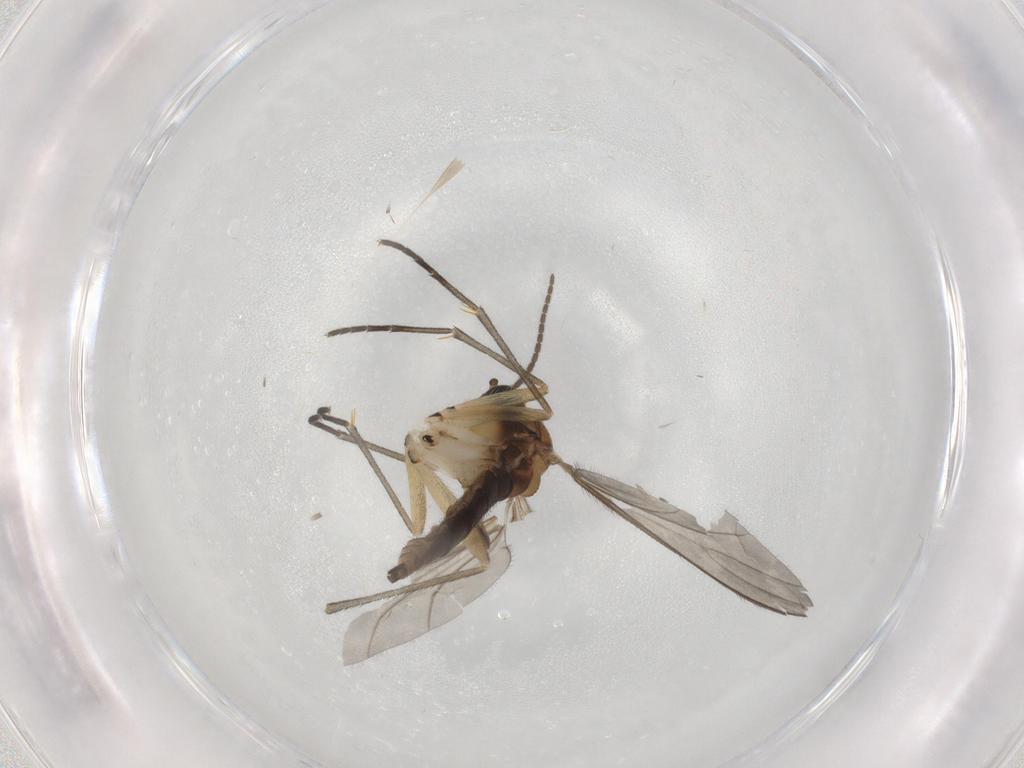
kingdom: Animalia
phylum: Arthropoda
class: Insecta
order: Diptera
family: Sciaridae
